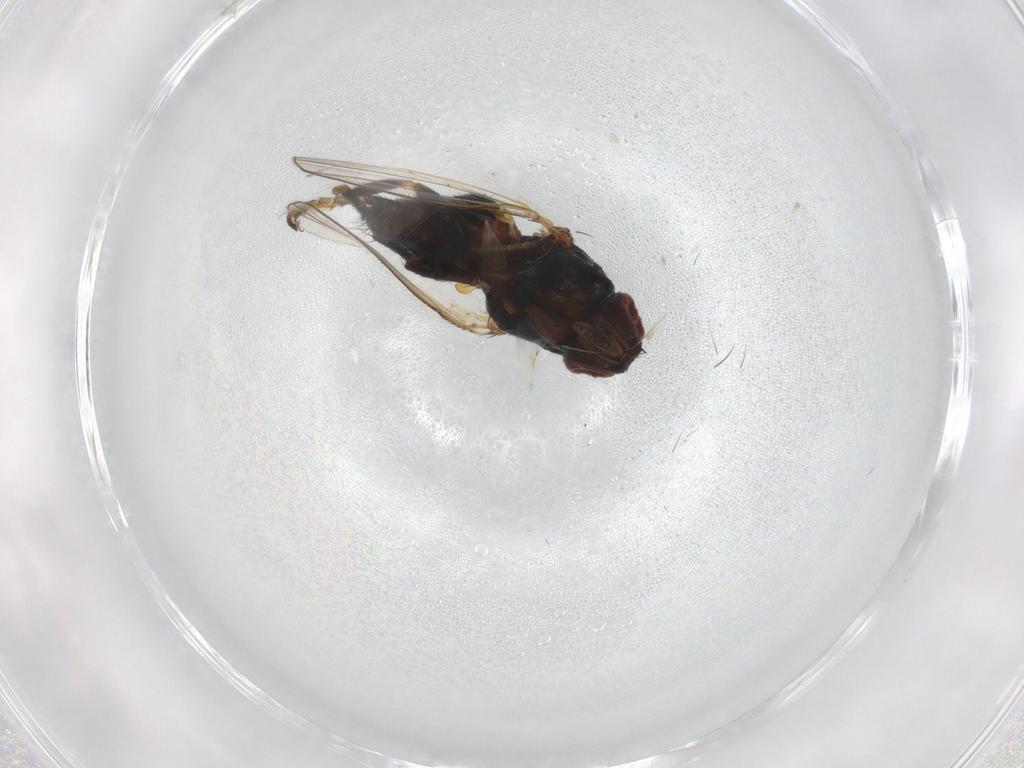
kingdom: Animalia
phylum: Arthropoda
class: Insecta
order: Diptera
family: Milichiidae
